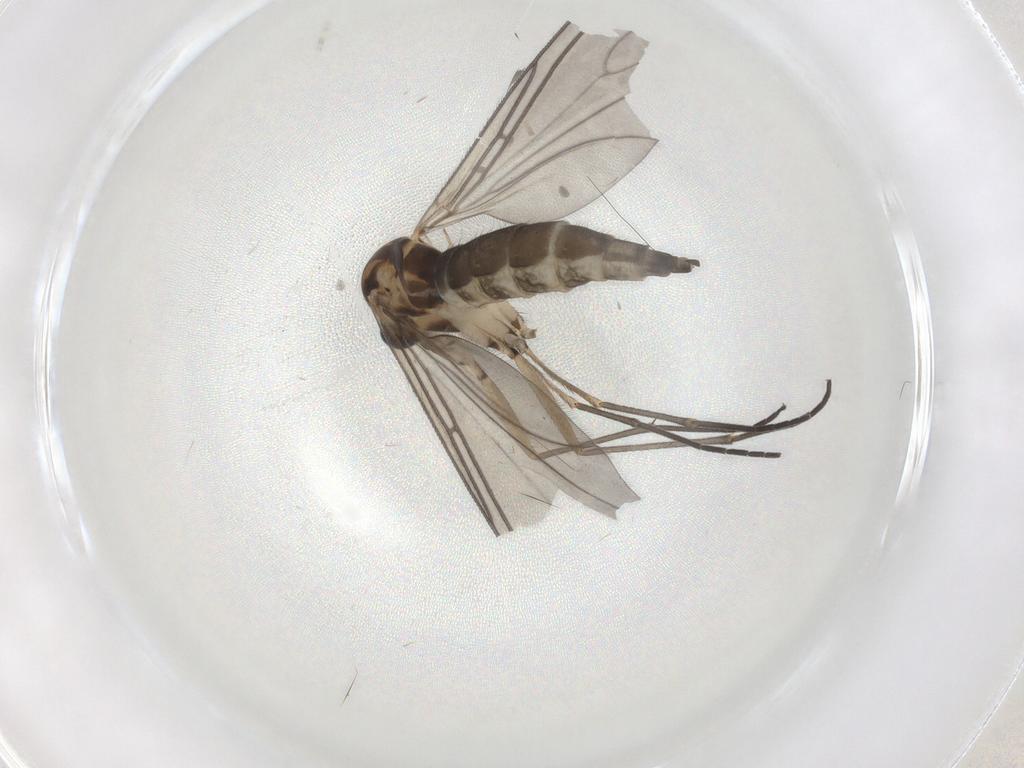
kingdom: Animalia
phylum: Arthropoda
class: Insecta
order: Diptera
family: Sciaridae
